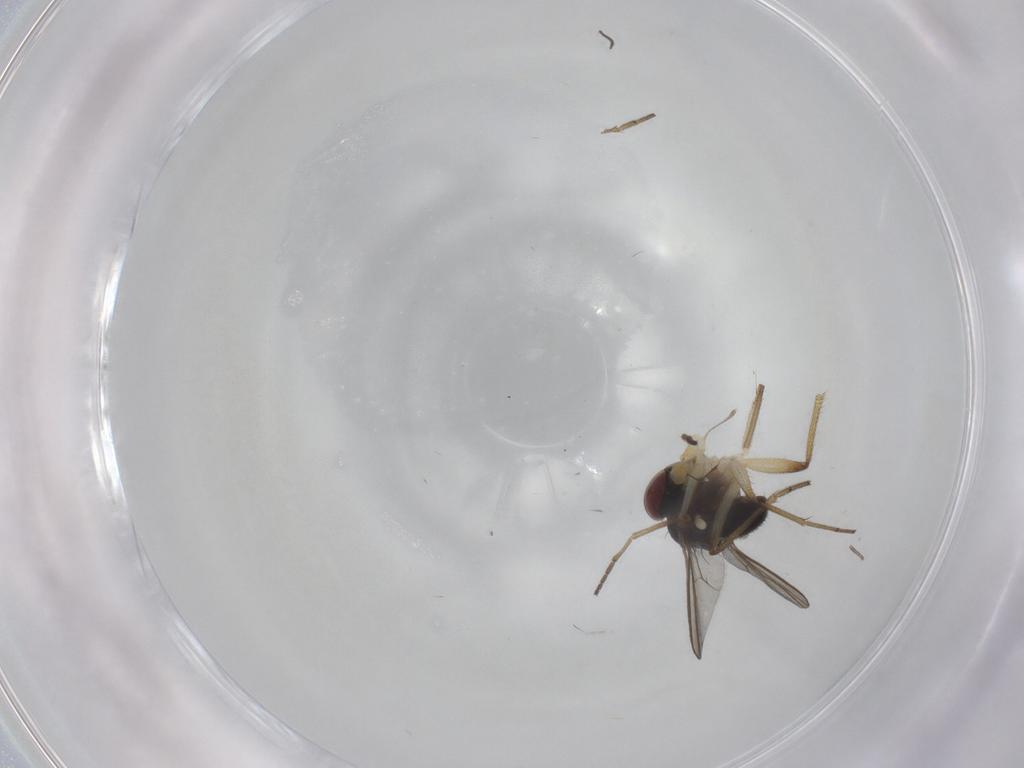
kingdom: Animalia
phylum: Arthropoda
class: Insecta
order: Diptera
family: Dolichopodidae
